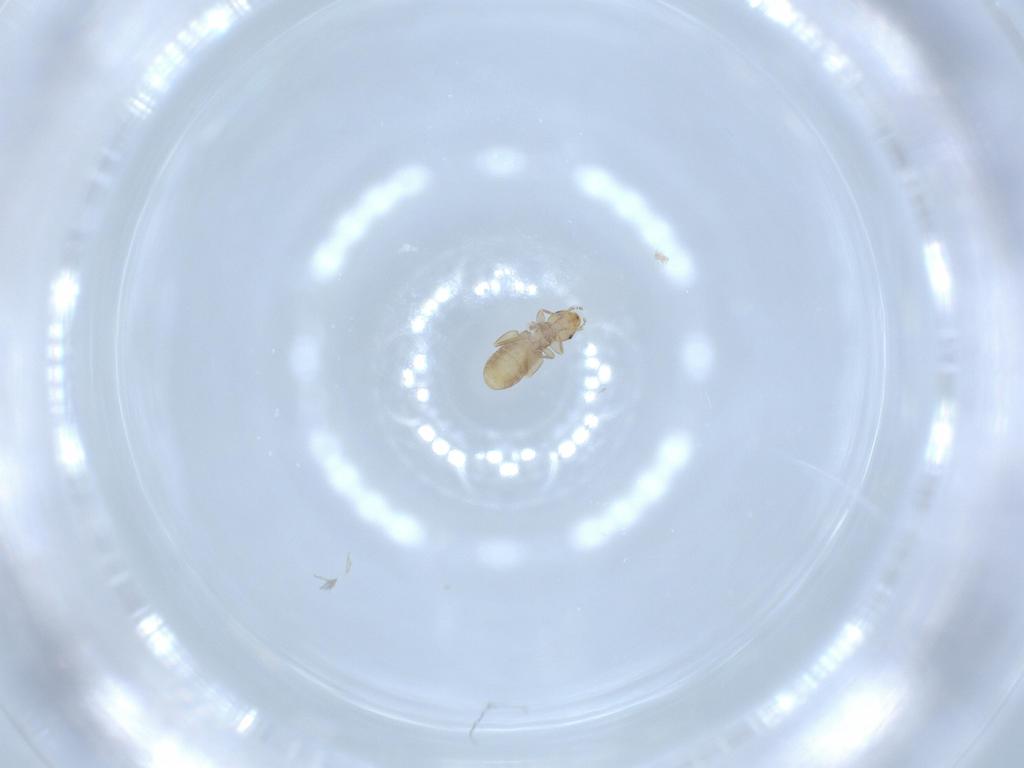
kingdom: Animalia
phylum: Arthropoda
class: Insecta
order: Psocodea
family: Liposcelididae
